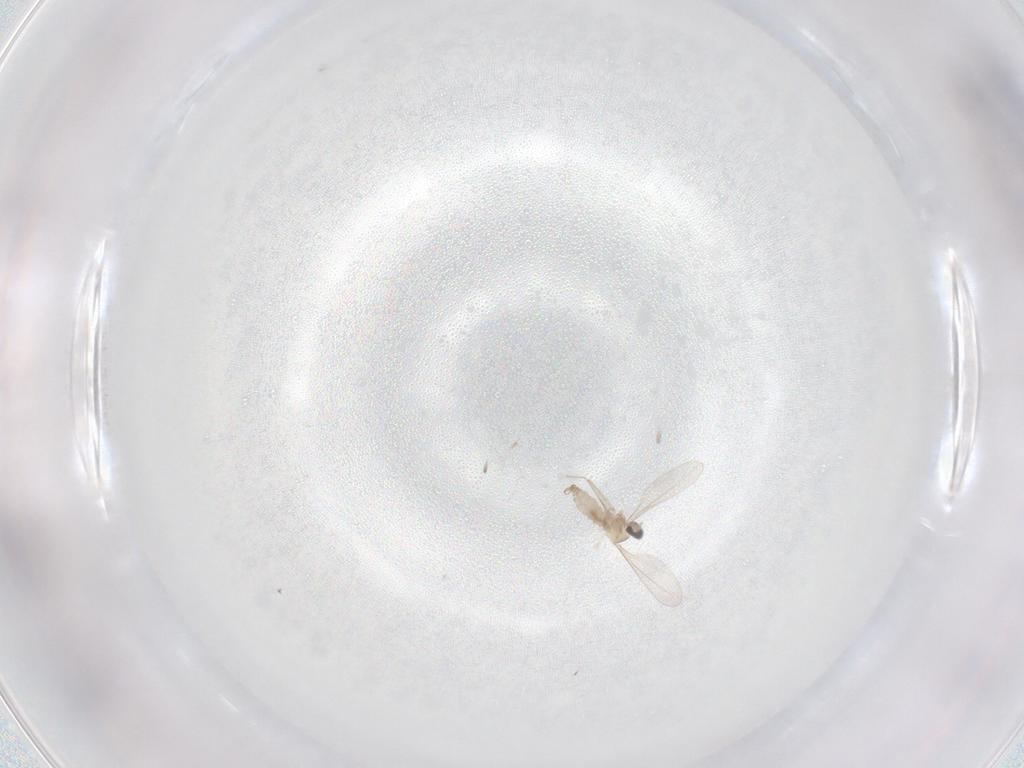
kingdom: Animalia
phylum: Arthropoda
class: Insecta
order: Diptera
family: Cecidomyiidae
